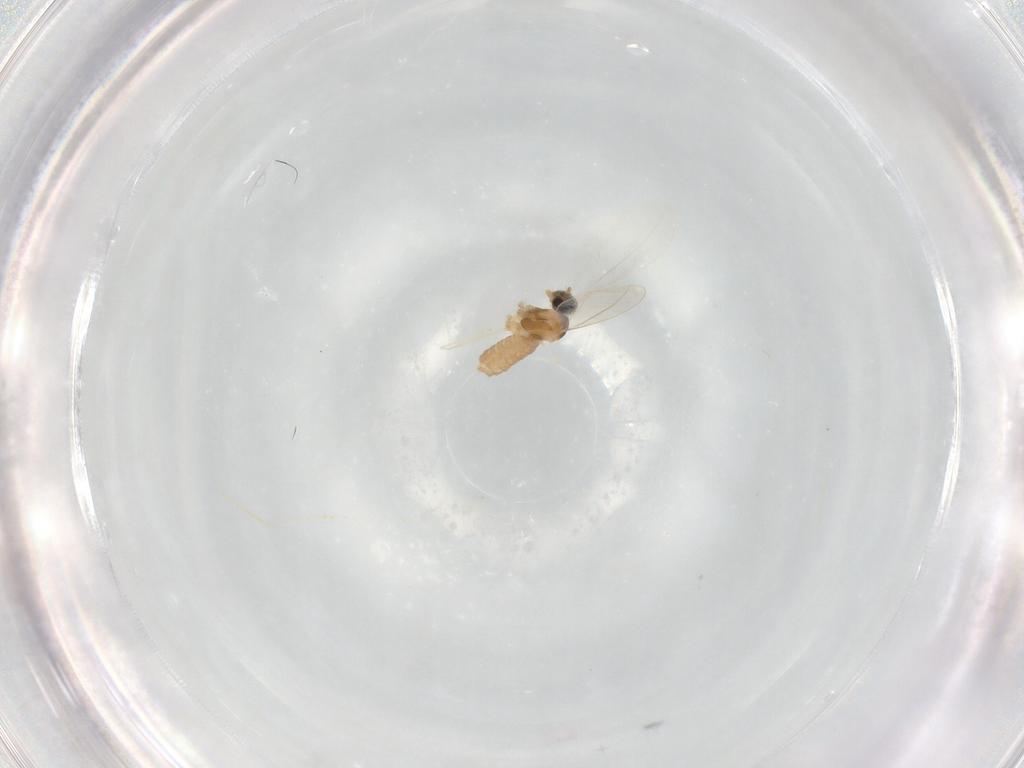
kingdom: Animalia
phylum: Arthropoda
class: Insecta
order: Diptera
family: Cecidomyiidae
